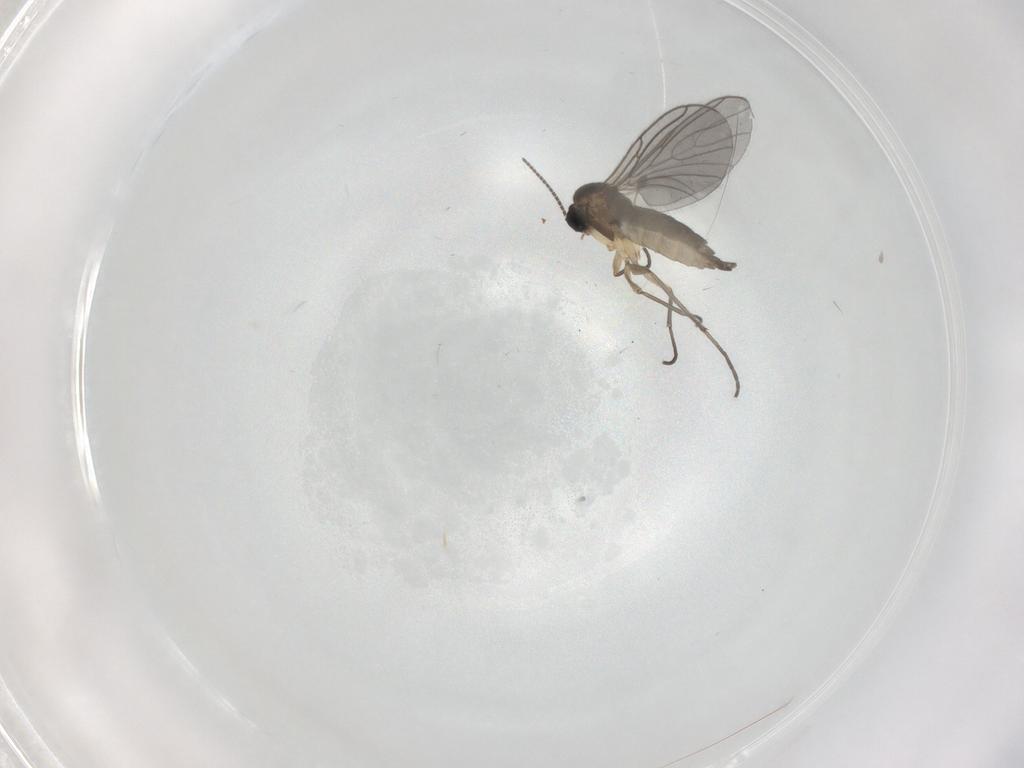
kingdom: Animalia
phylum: Arthropoda
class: Insecta
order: Diptera
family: Sciaridae
